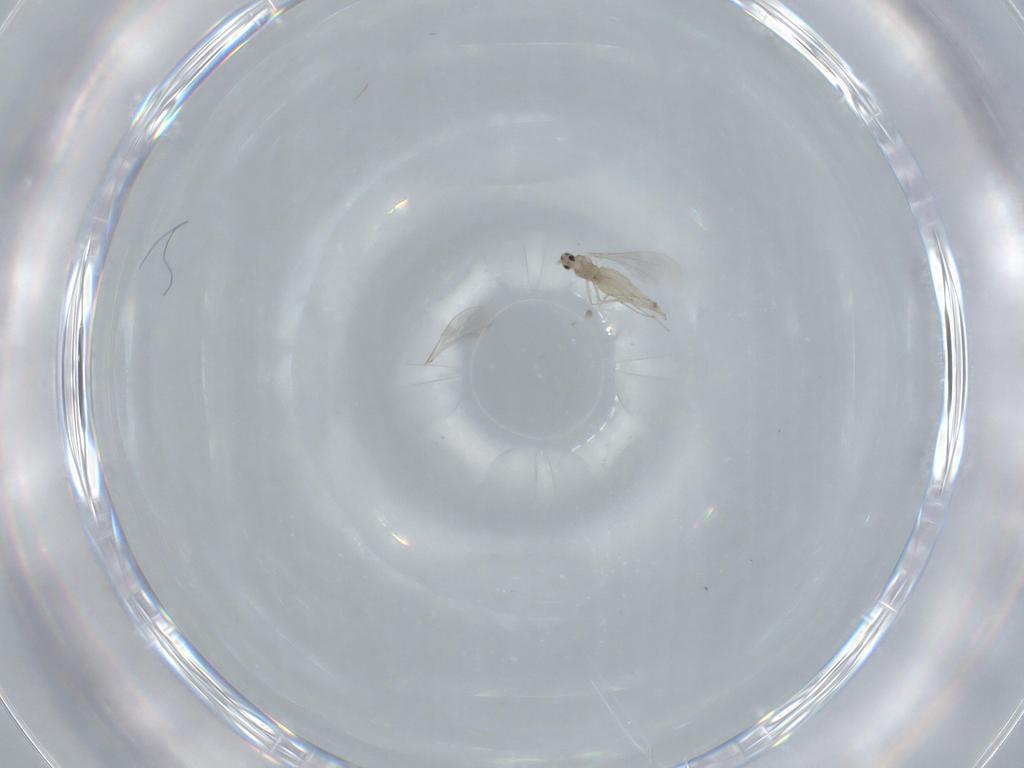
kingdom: Animalia
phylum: Arthropoda
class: Insecta
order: Diptera
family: Cecidomyiidae
